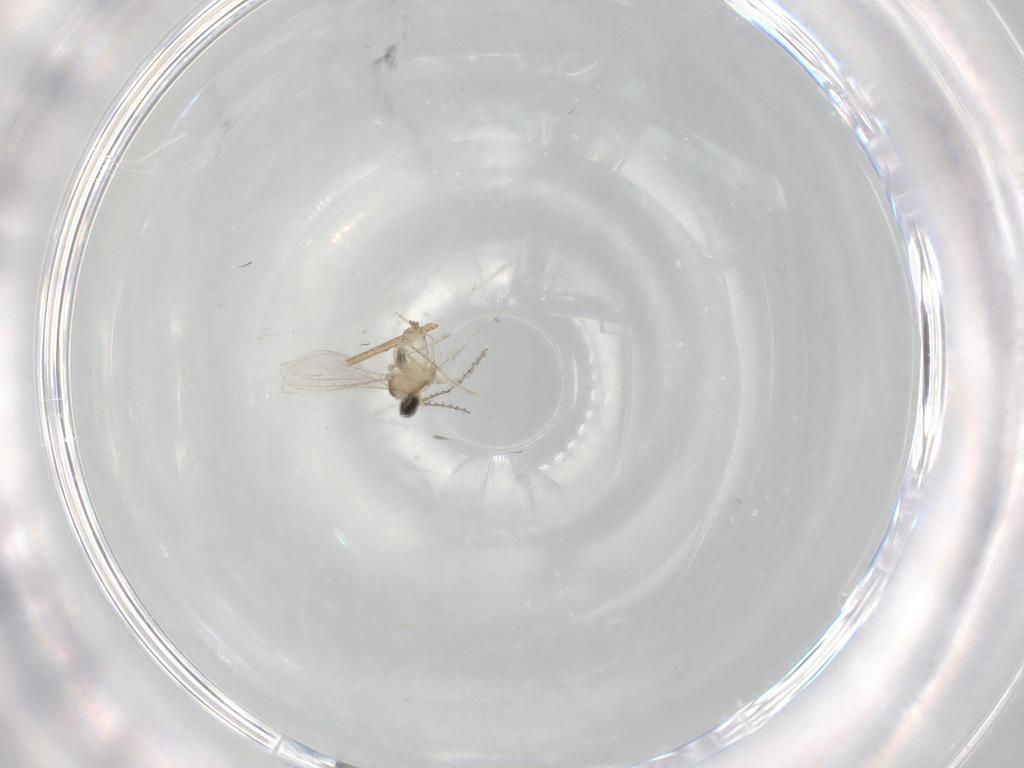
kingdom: Animalia
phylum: Arthropoda
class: Insecta
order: Diptera
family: Cecidomyiidae
